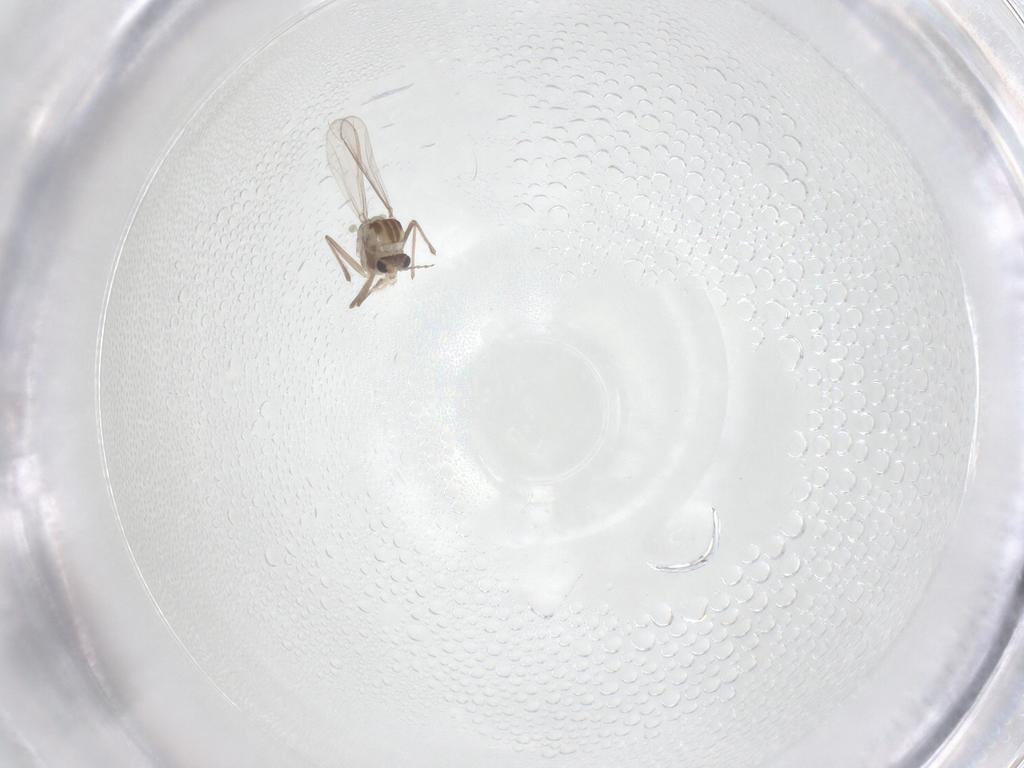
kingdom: Animalia
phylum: Arthropoda
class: Insecta
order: Diptera
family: Chironomidae
